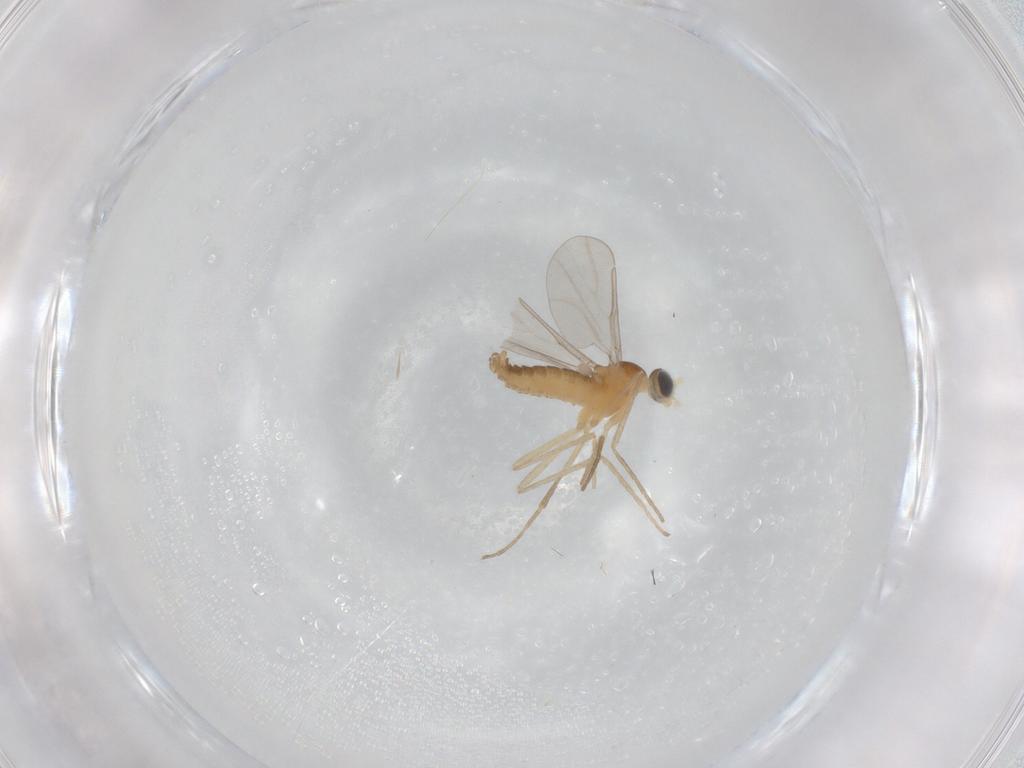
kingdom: Animalia
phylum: Arthropoda
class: Insecta
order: Diptera
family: Cecidomyiidae
